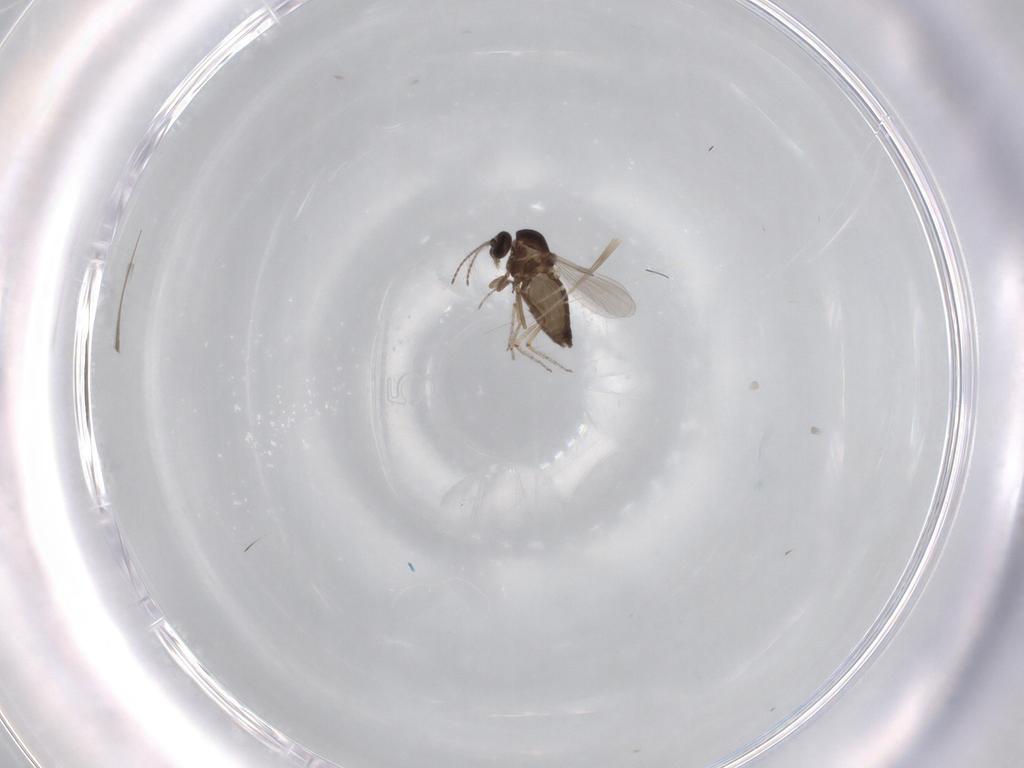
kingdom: Animalia
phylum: Arthropoda
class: Insecta
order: Diptera
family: Ceratopogonidae
